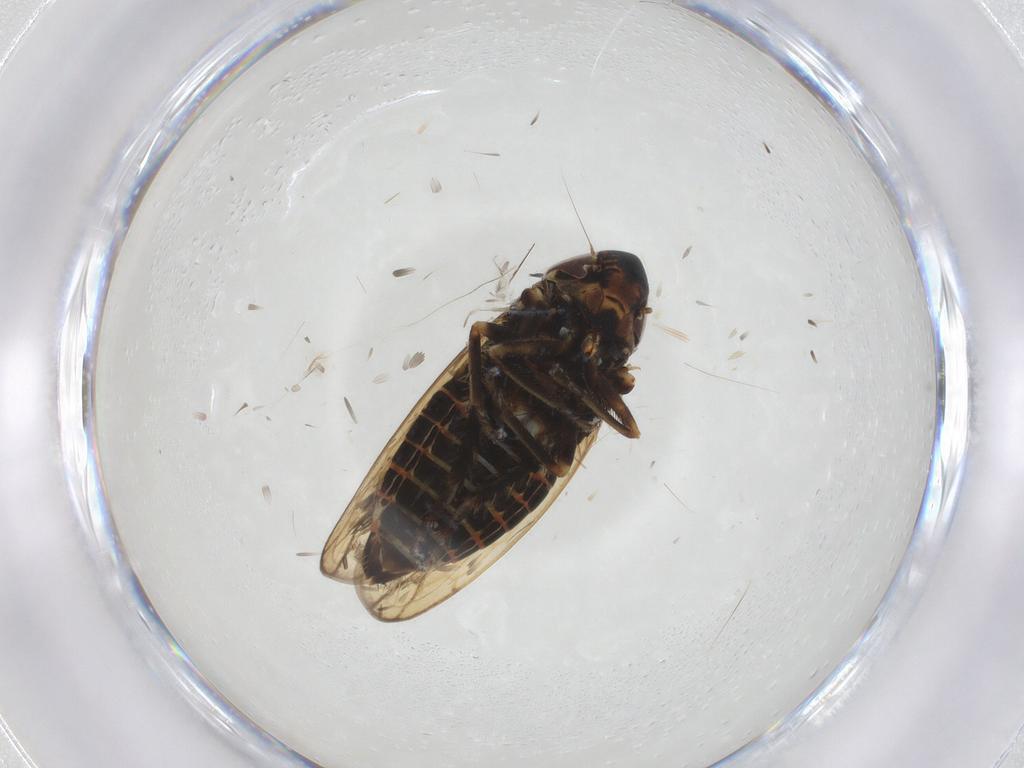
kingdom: Animalia
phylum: Arthropoda
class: Insecta
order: Hemiptera
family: Cicadellidae
